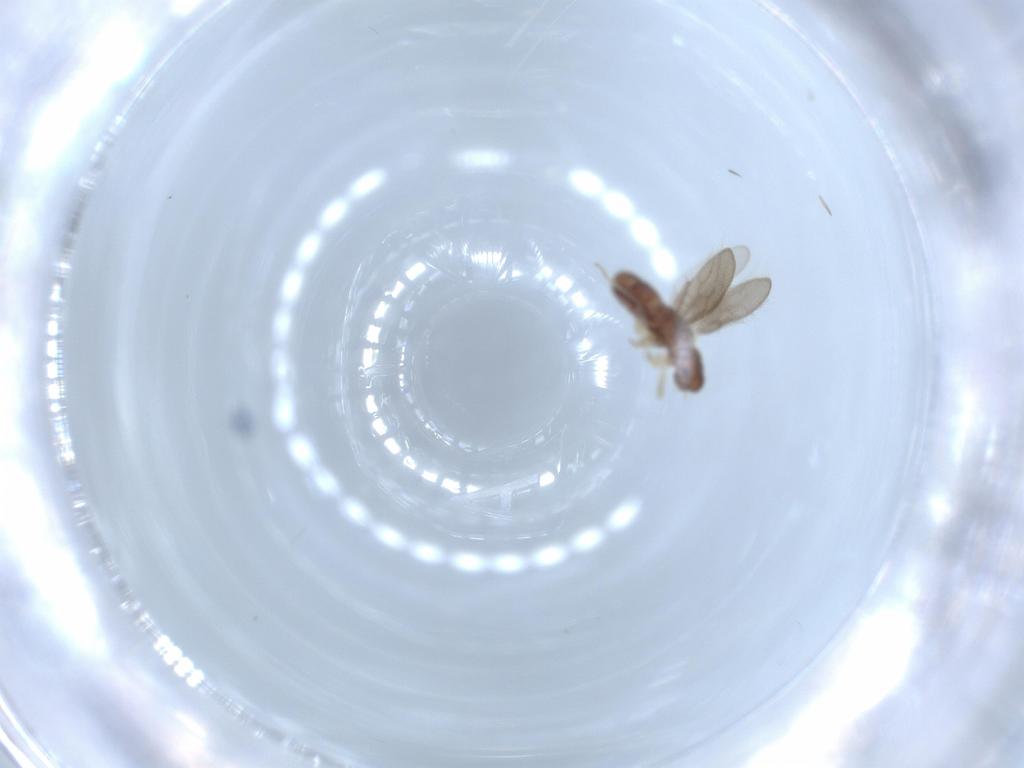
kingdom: Animalia
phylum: Arthropoda
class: Insecta
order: Psocodea
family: Archipsocidae
